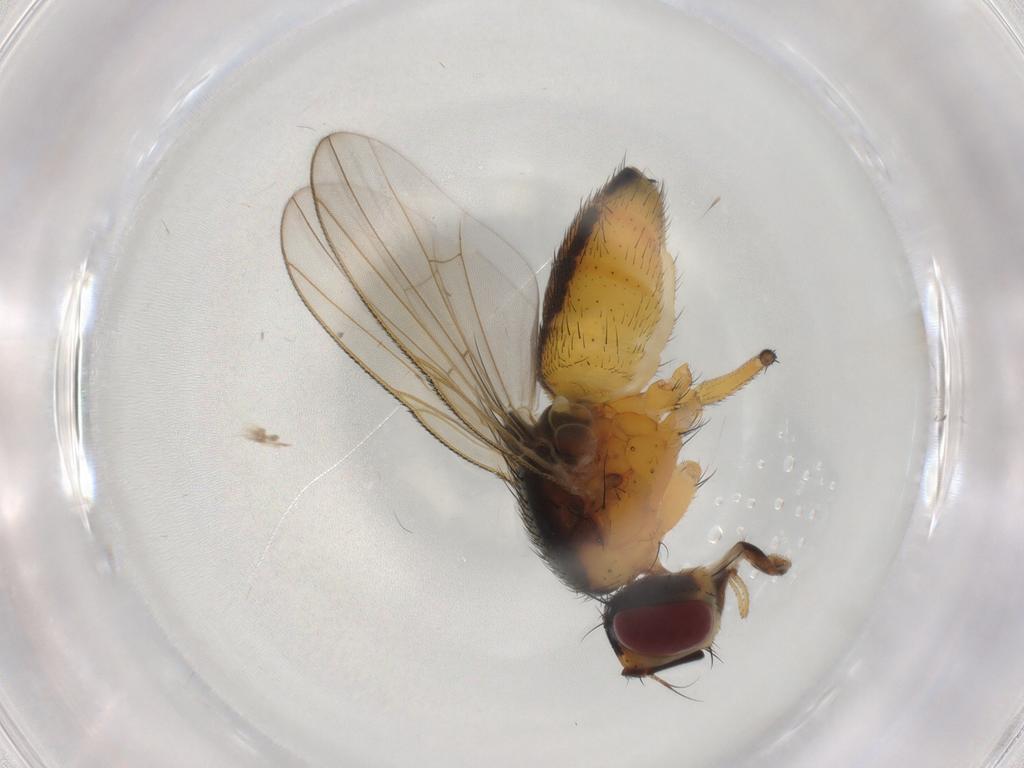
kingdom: Animalia
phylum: Arthropoda
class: Insecta
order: Diptera
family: Muscidae
